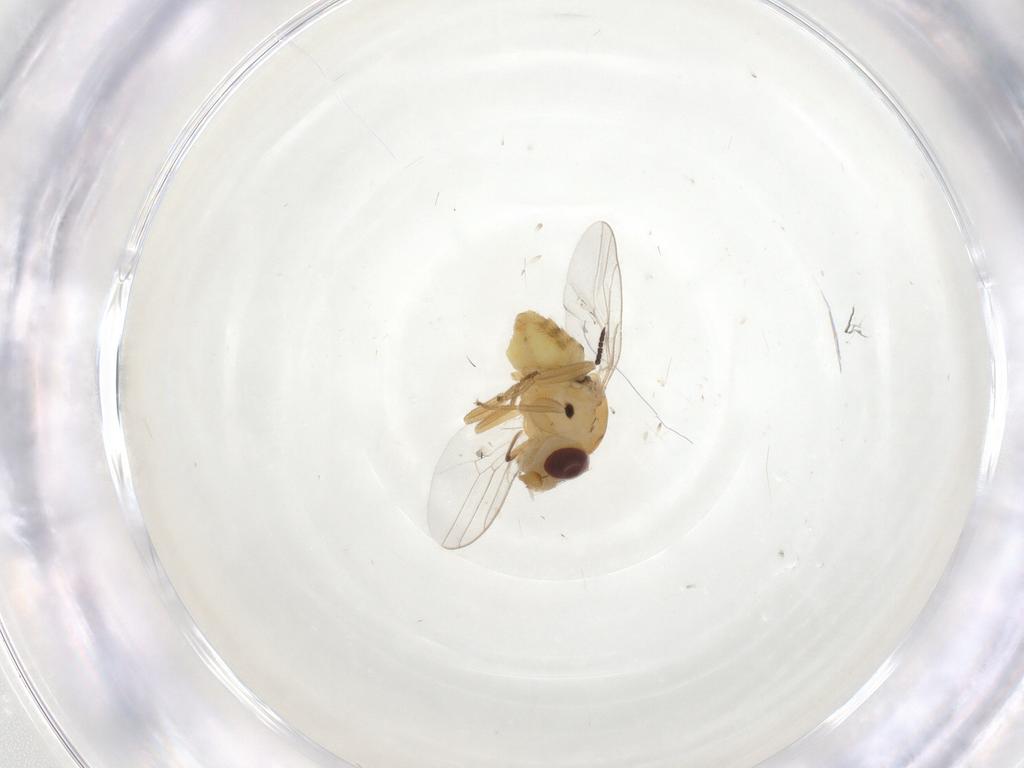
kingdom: Animalia
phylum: Arthropoda
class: Insecta
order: Diptera
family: Chloropidae
